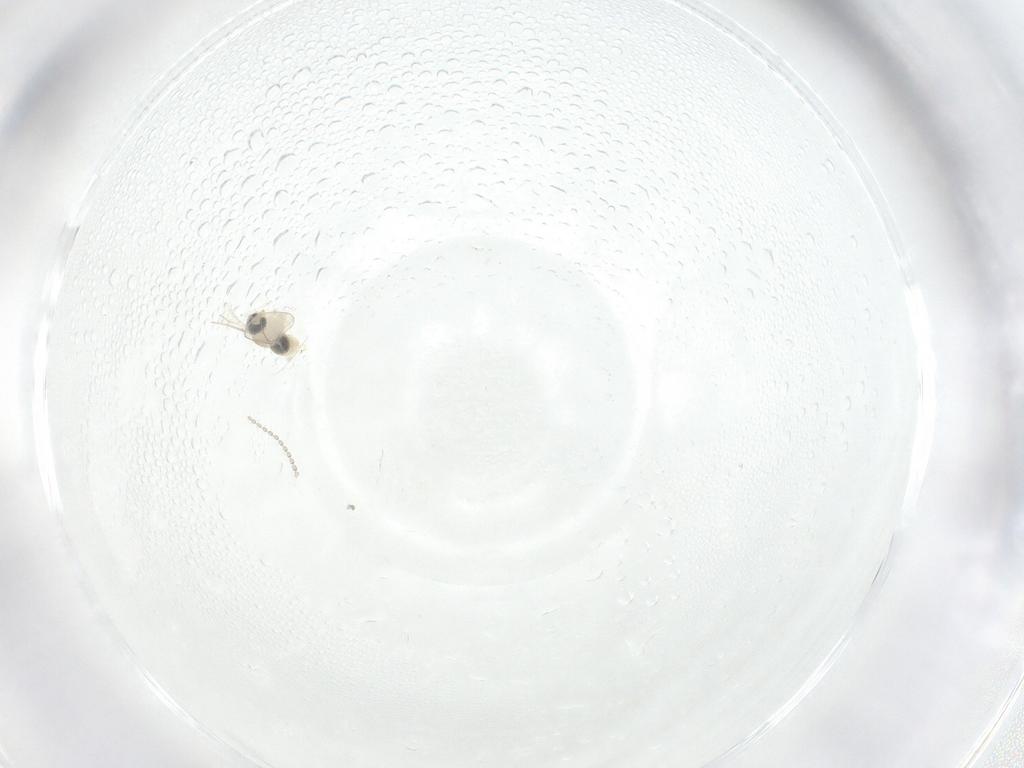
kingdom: Animalia
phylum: Arthropoda
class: Insecta
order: Diptera
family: Cecidomyiidae
